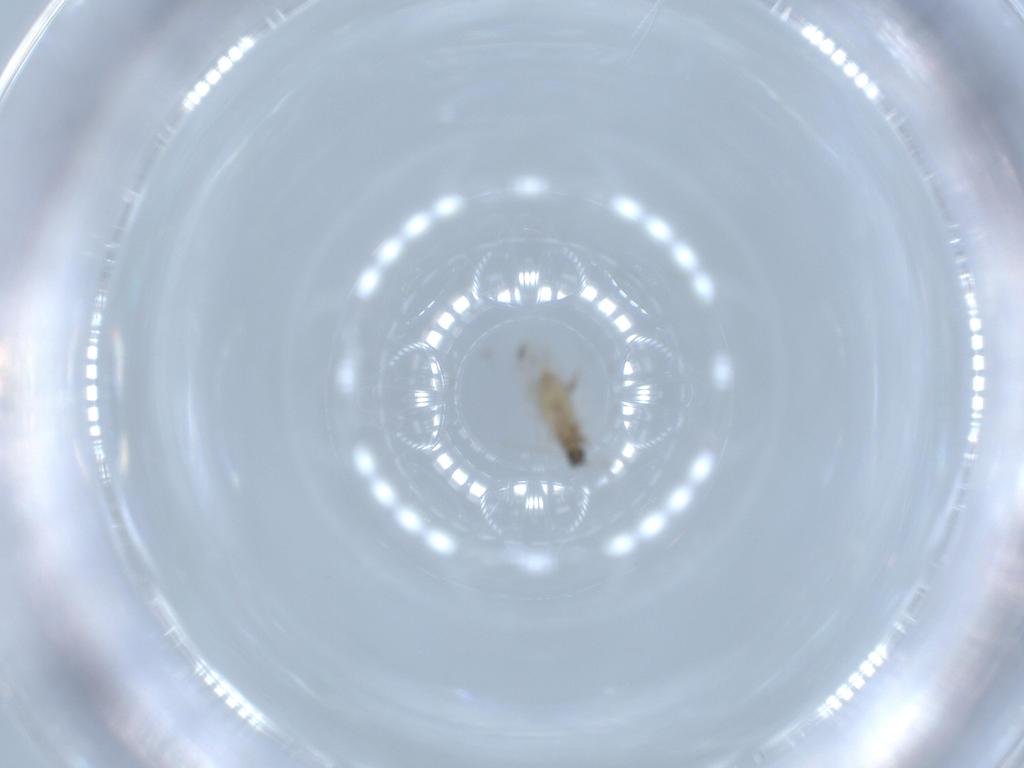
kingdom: Animalia
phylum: Arthropoda
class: Insecta
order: Diptera
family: Cecidomyiidae
